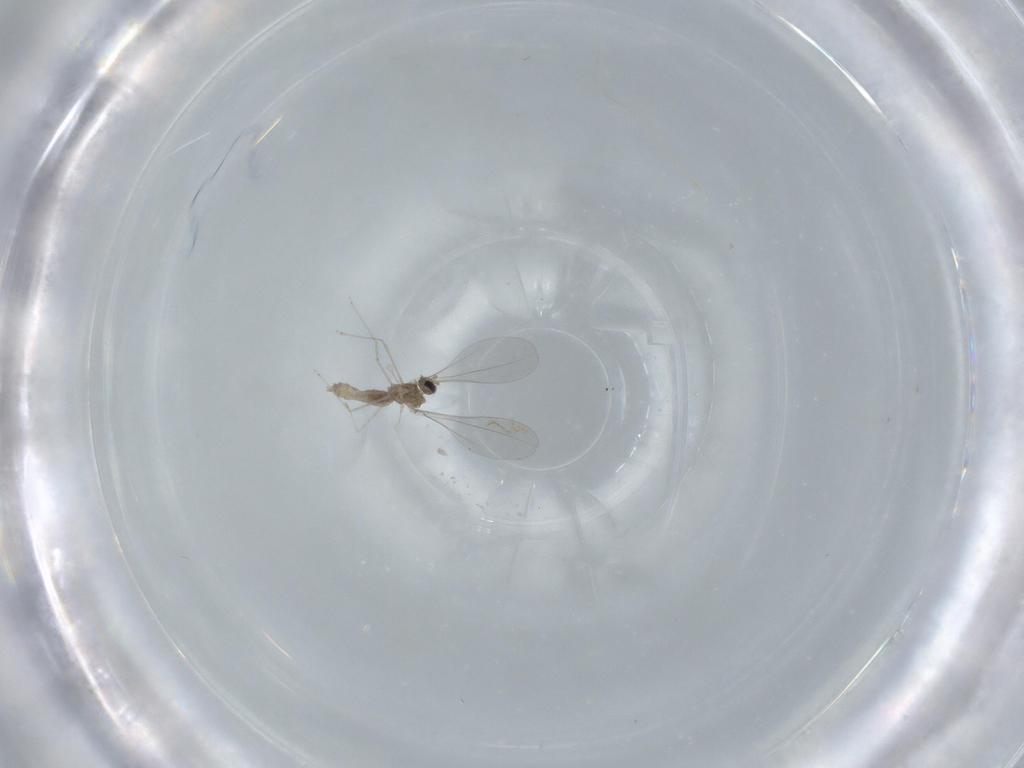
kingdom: Animalia
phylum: Arthropoda
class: Insecta
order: Diptera
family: Cecidomyiidae
